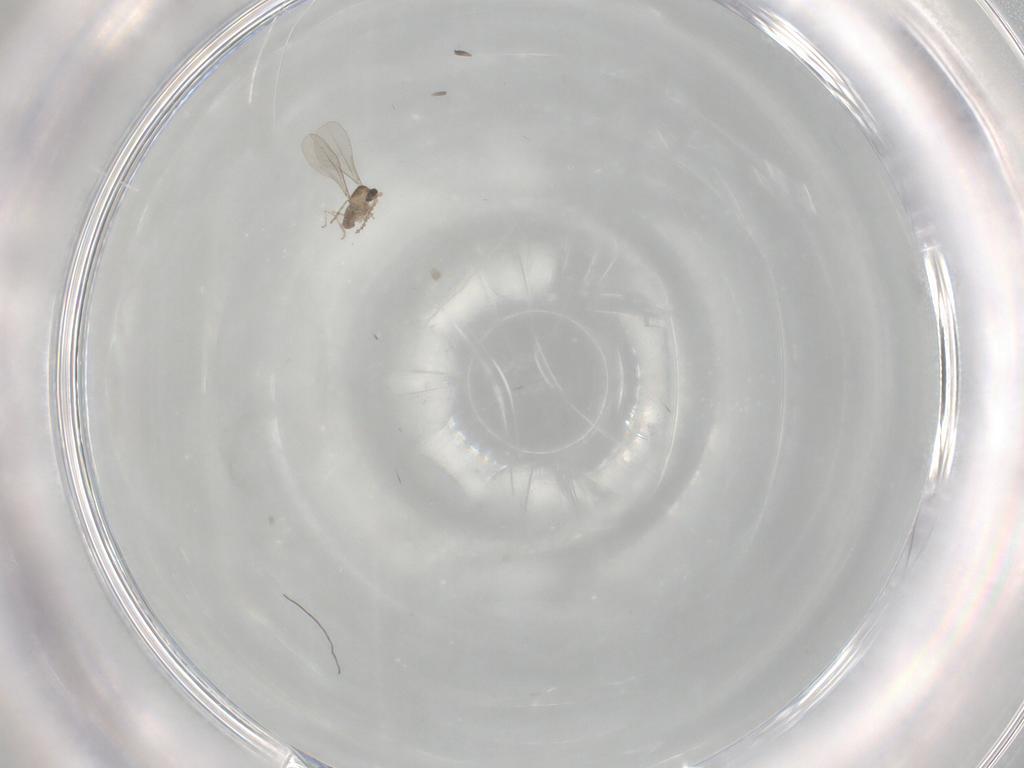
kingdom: Animalia
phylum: Arthropoda
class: Insecta
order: Diptera
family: Cecidomyiidae
